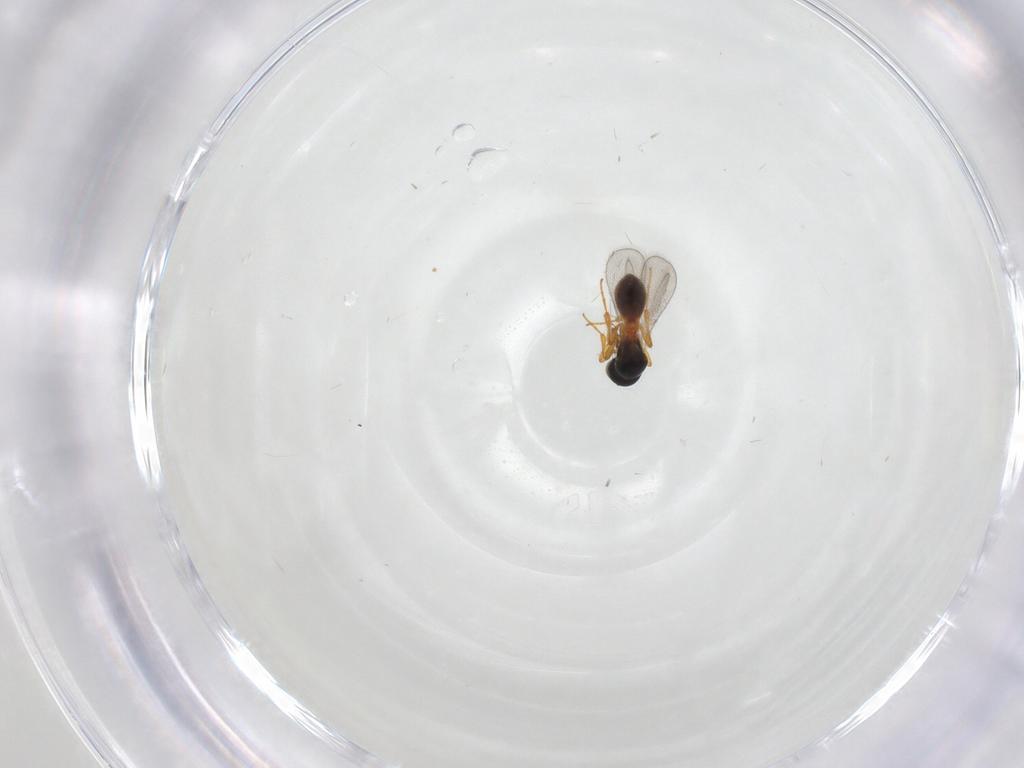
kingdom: Animalia
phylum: Arthropoda
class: Insecta
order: Hymenoptera
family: Platygastridae
